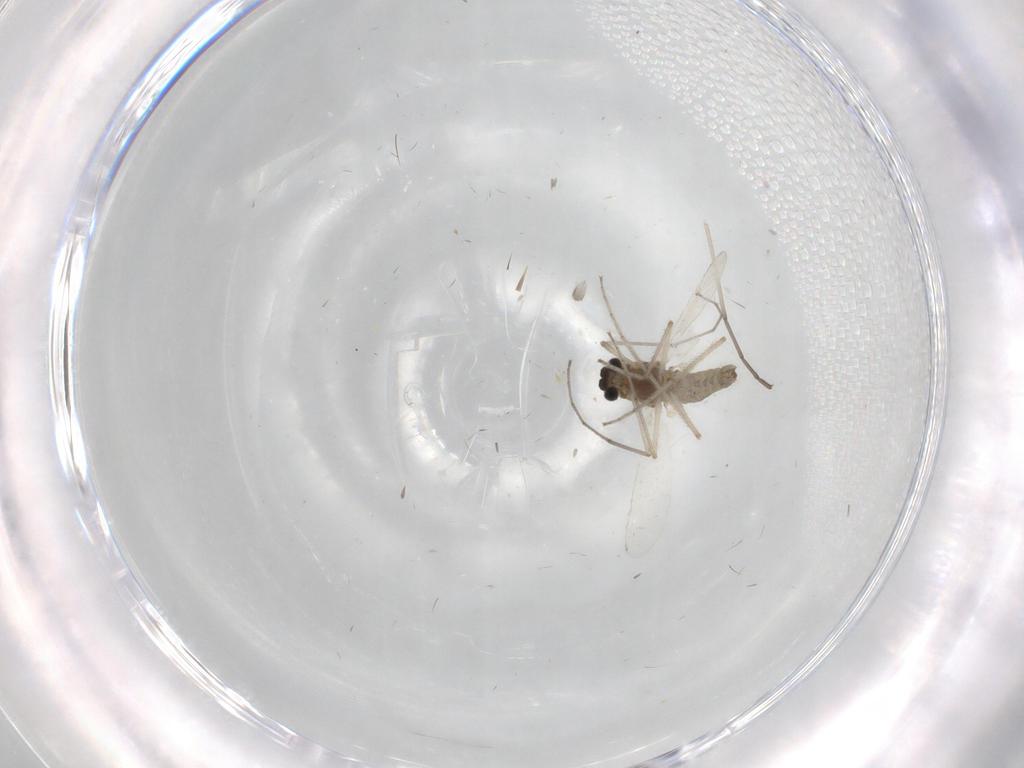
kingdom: Animalia
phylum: Arthropoda
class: Insecta
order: Diptera
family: Chironomidae
